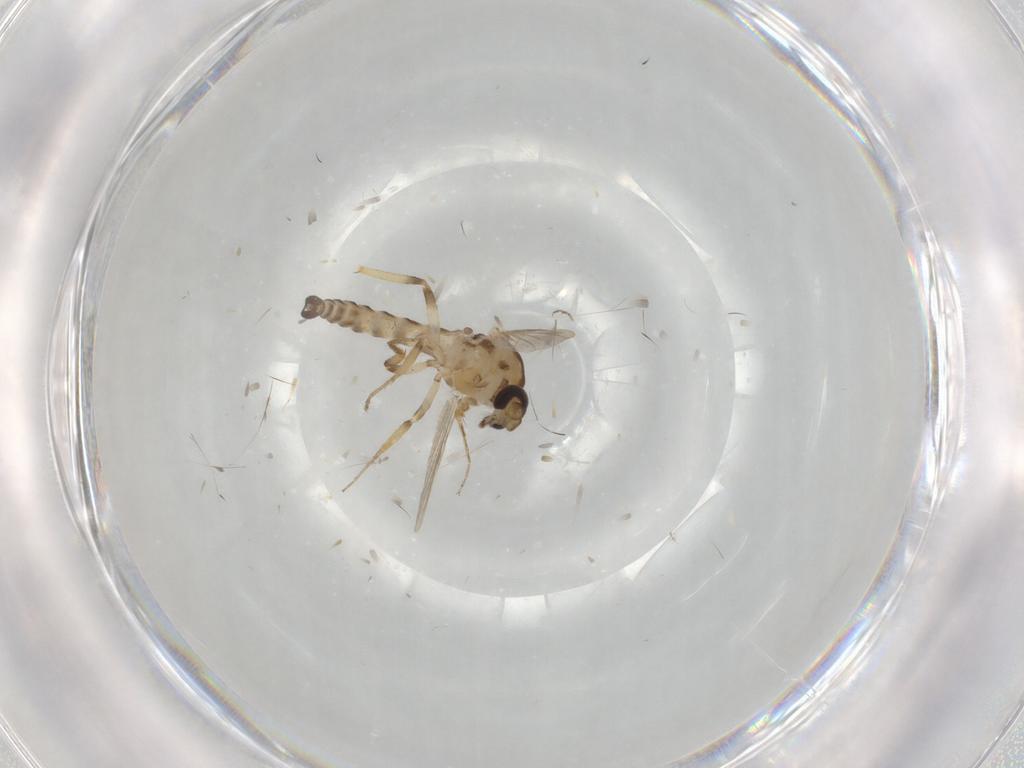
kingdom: Animalia
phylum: Arthropoda
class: Insecta
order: Diptera
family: Ceratopogonidae
